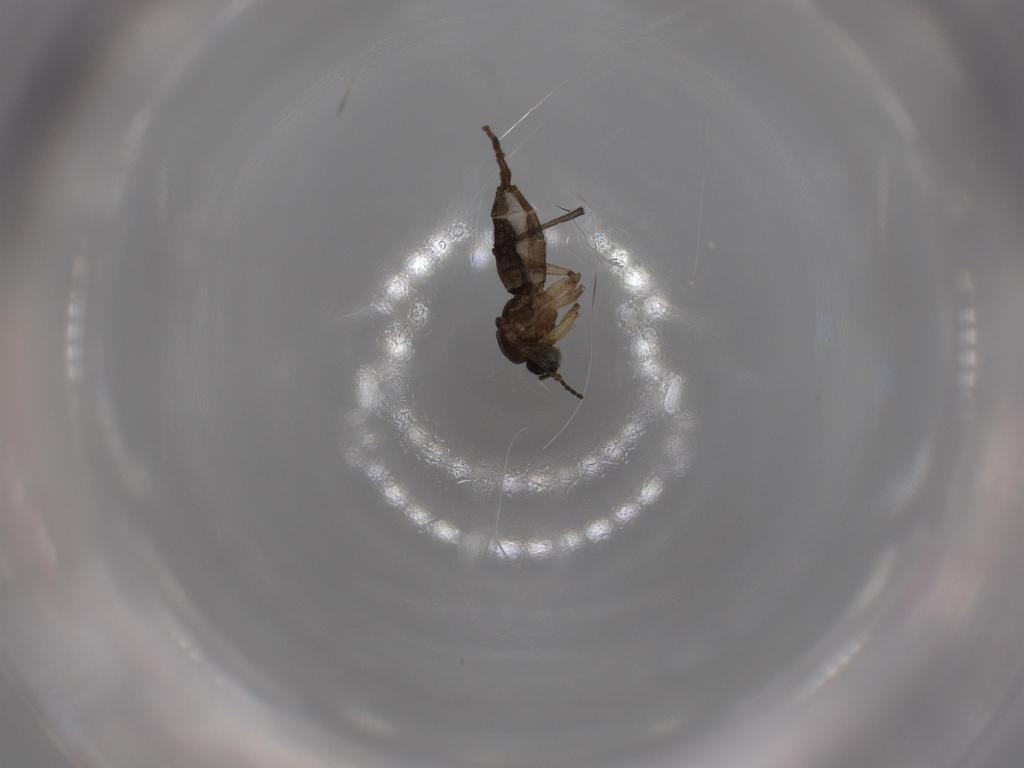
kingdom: Animalia
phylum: Arthropoda
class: Insecta
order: Diptera
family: Sciaridae
